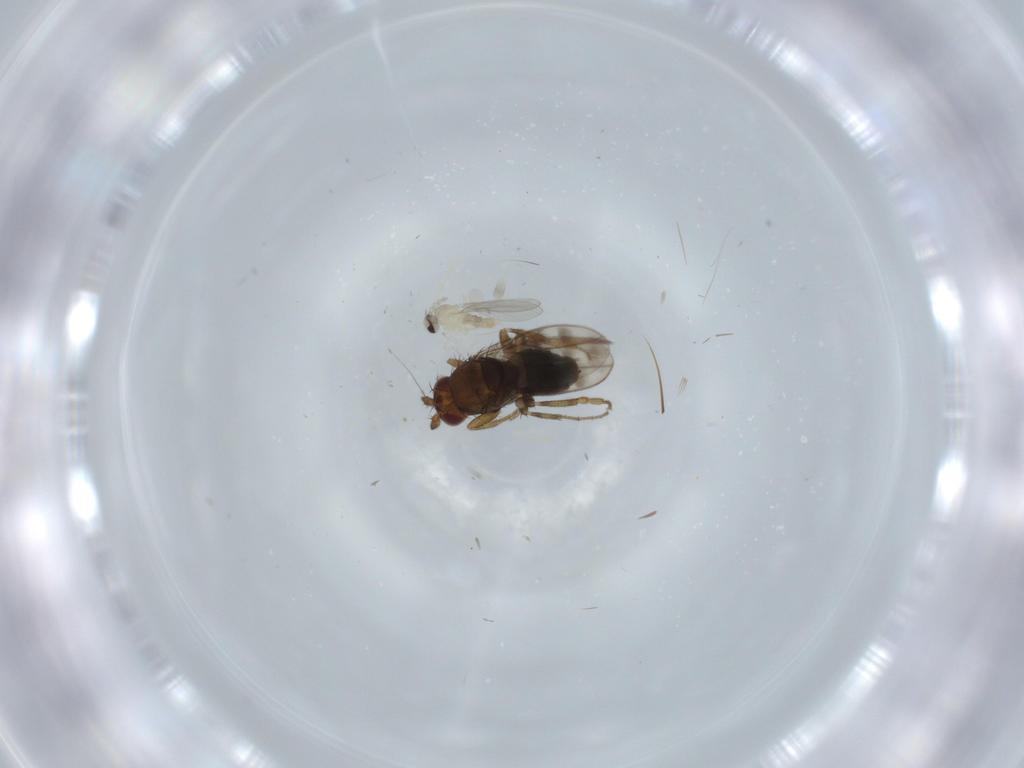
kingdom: Animalia
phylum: Arthropoda
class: Insecta
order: Diptera
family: Sphaeroceridae
